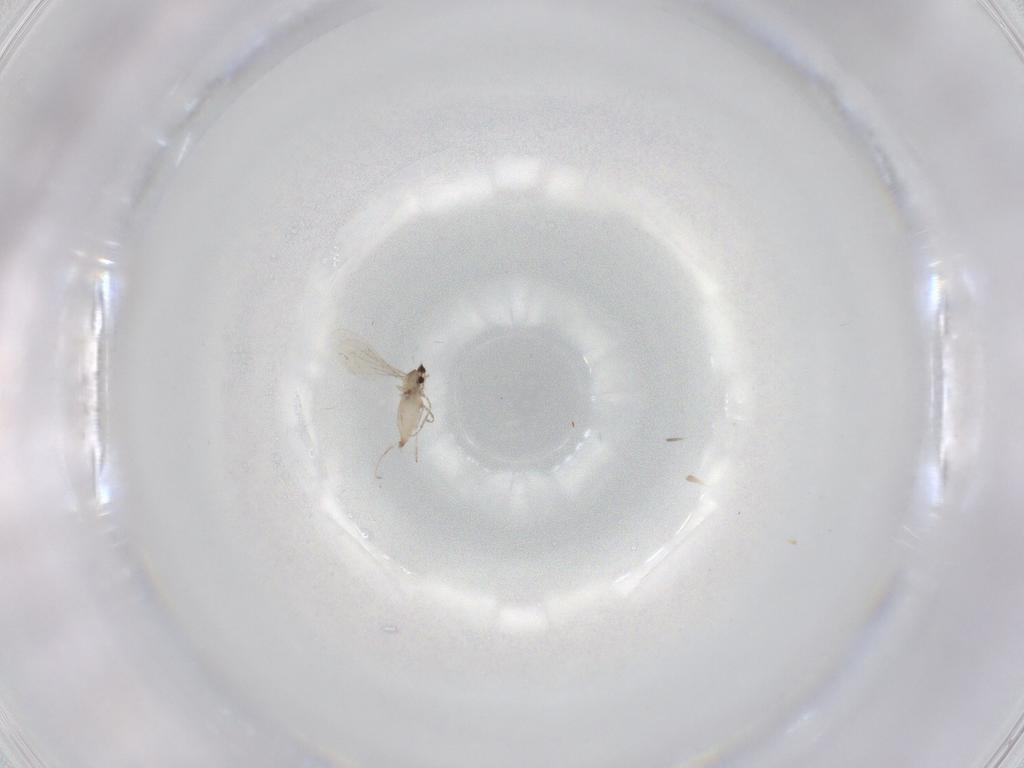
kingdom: Animalia
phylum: Arthropoda
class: Insecta
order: Diptera
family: Cecidomyiidae
